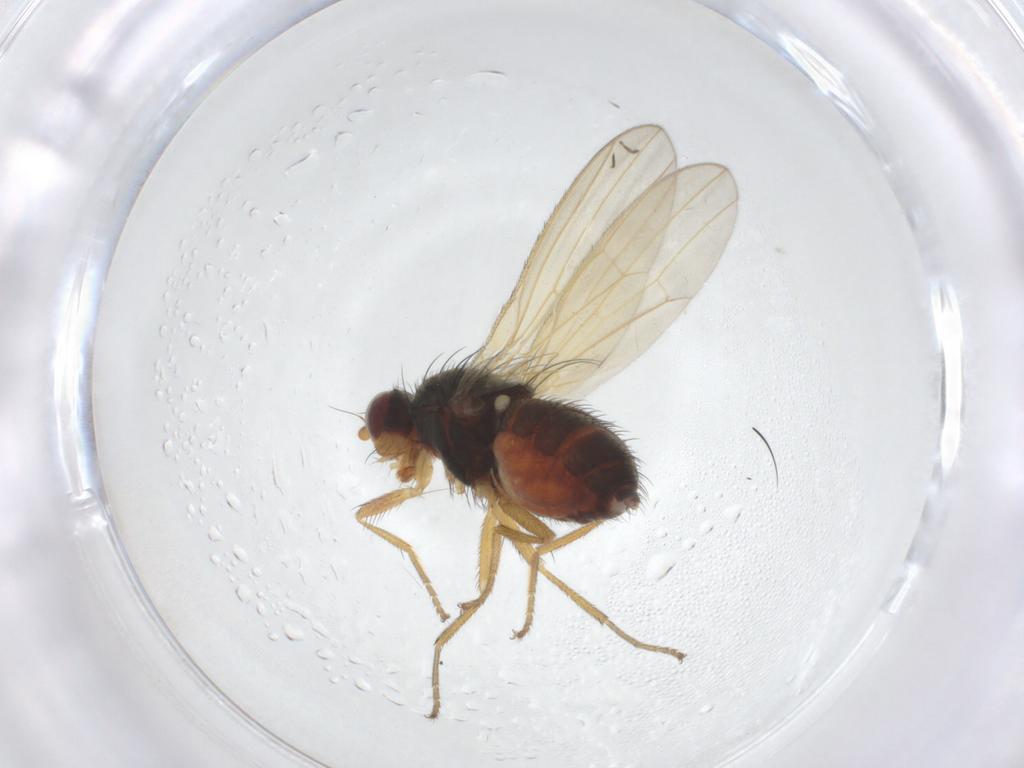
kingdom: Animalia
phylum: Arthropoda
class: Insecta
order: Diptera
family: Heleomyzidae
